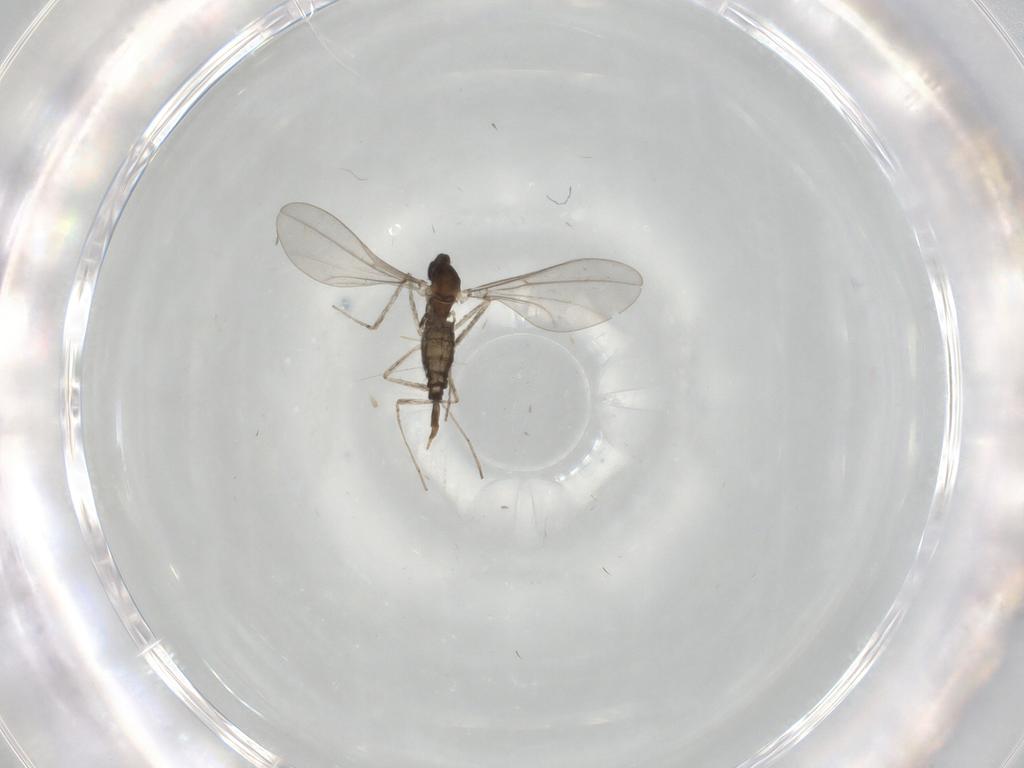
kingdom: Animalia
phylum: Arthropoda
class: Insecta
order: Diptera
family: Cecidomyiidae
